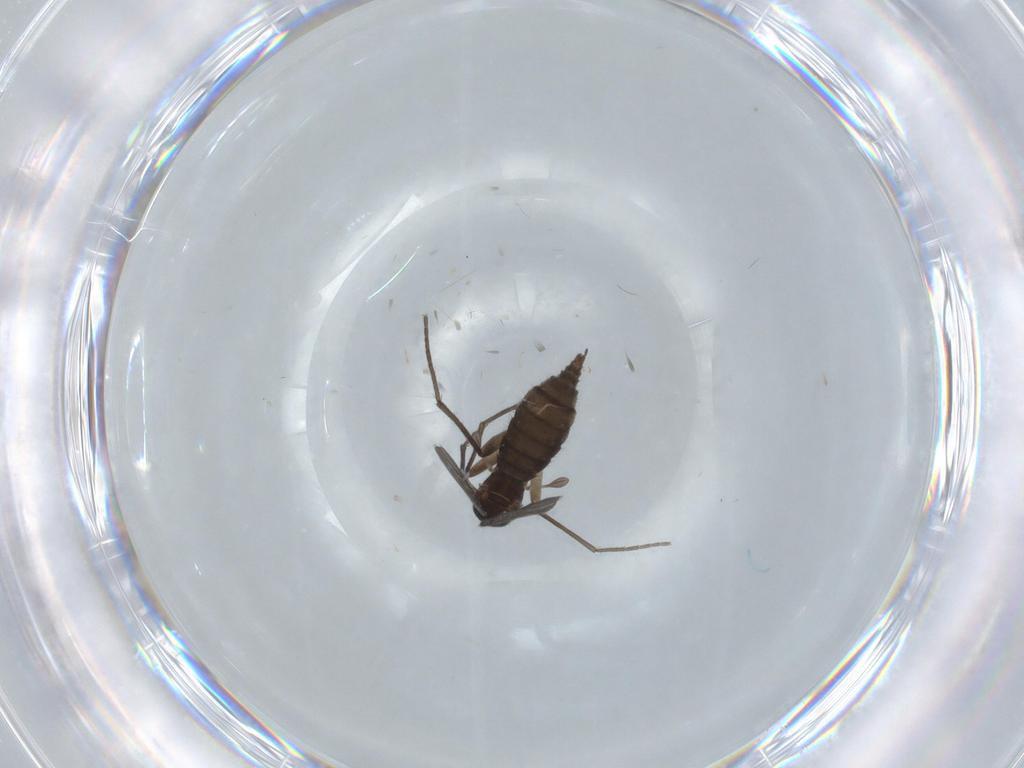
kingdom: Animalia
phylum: Arthropoda
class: Insecta
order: Diptera
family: Sciaridae
